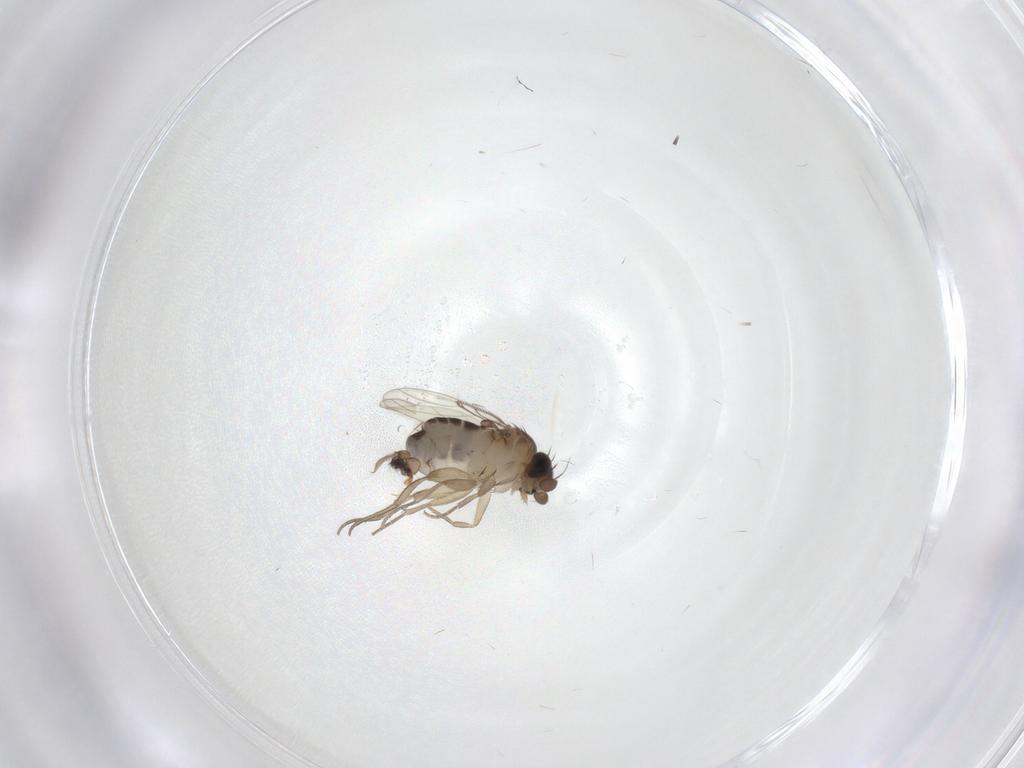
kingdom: Animalia
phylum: Arthropoda
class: Insecta
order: Diptera
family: Phoridae
